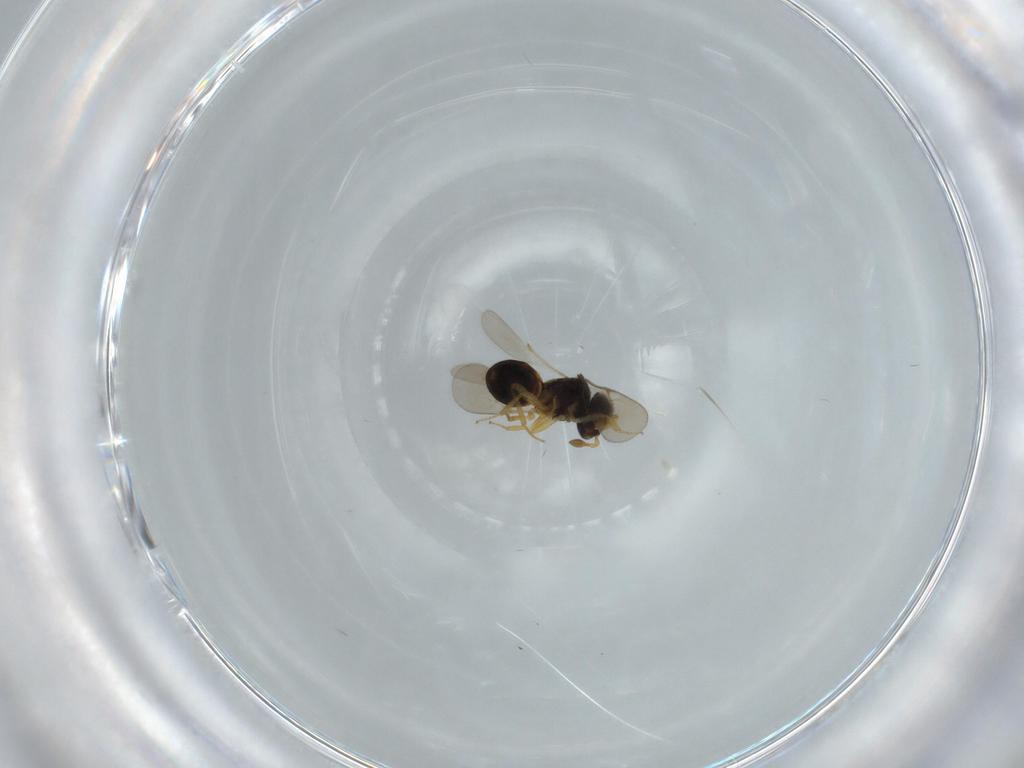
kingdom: Animalia
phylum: Arthropoda
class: Insecta
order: Hymenoptera
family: Scelionidae
